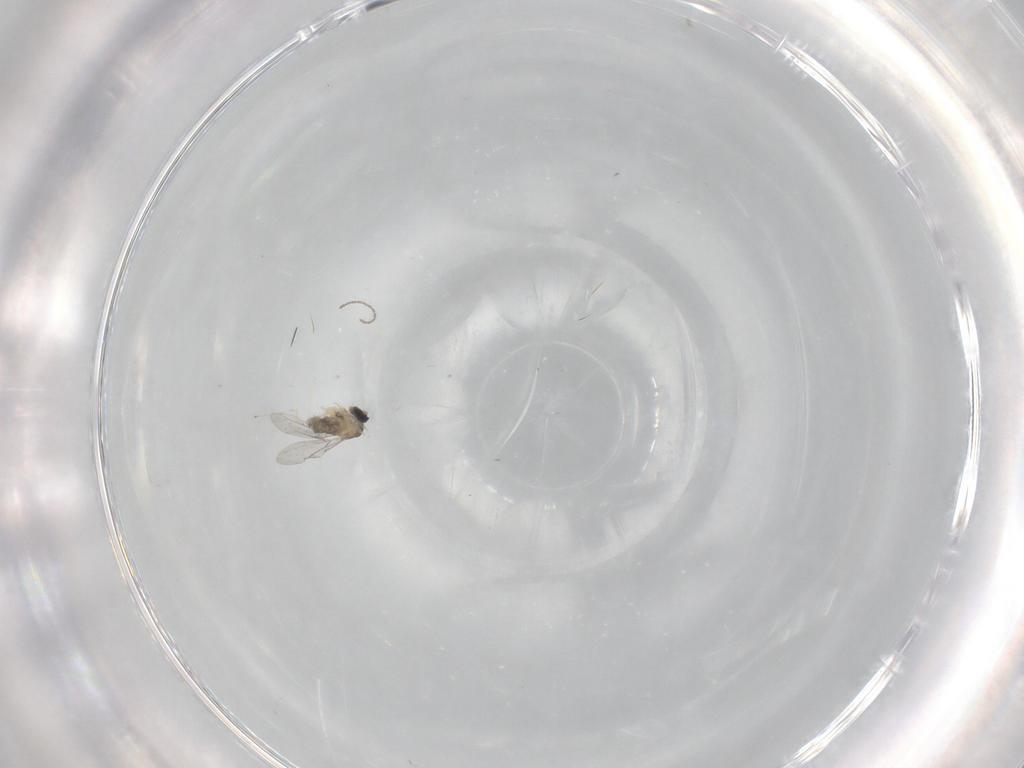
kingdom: Animalia
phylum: Arthropoda
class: Insecta
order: Diptera
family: Cecidomyiidae
